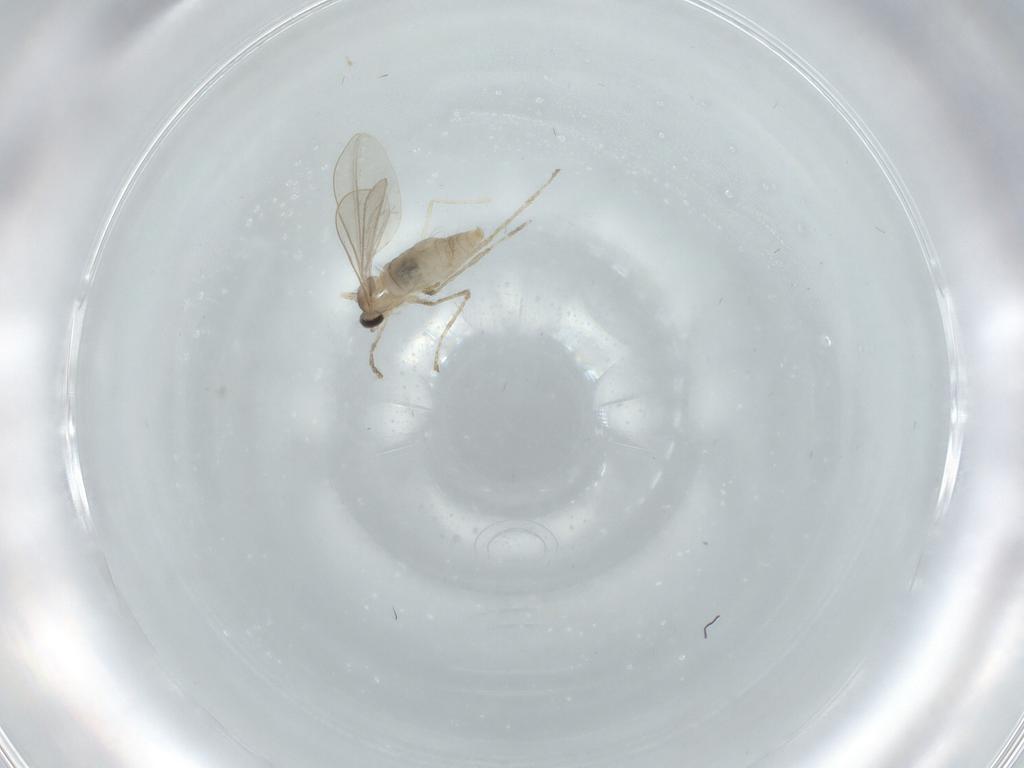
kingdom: Animalia
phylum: Arthropoda
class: Insecta
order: Diptera
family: Cecidomyiidae
